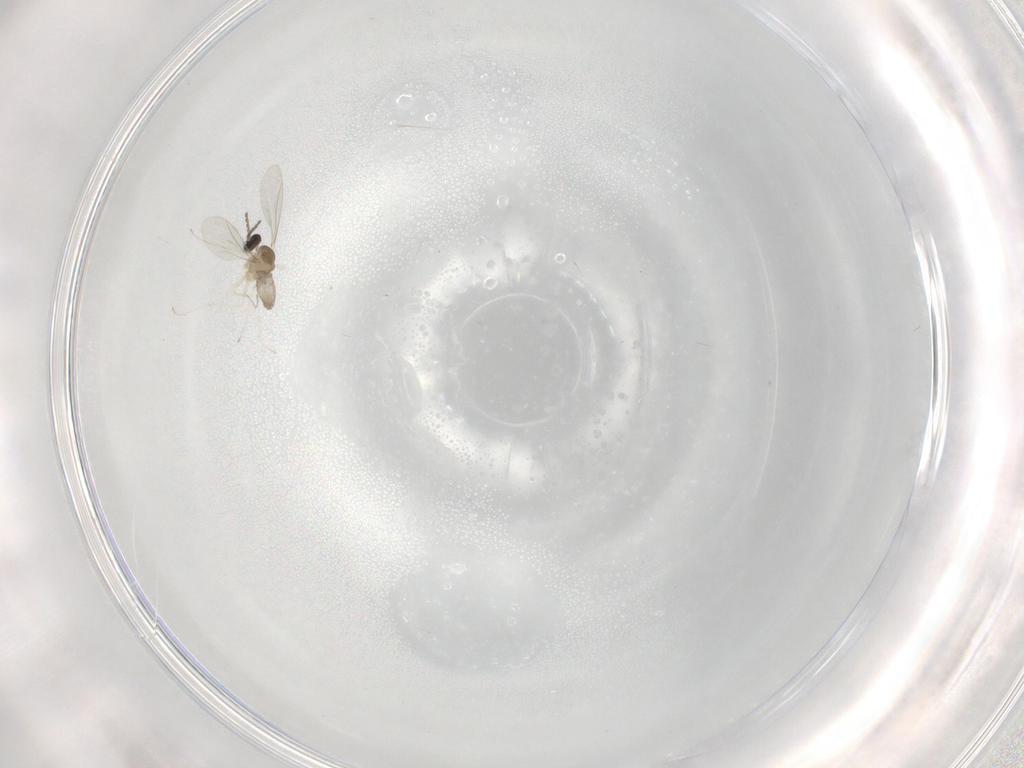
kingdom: Animalia
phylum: Arthropoda
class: Insecta
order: Diptera
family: Cecidomyiidae
